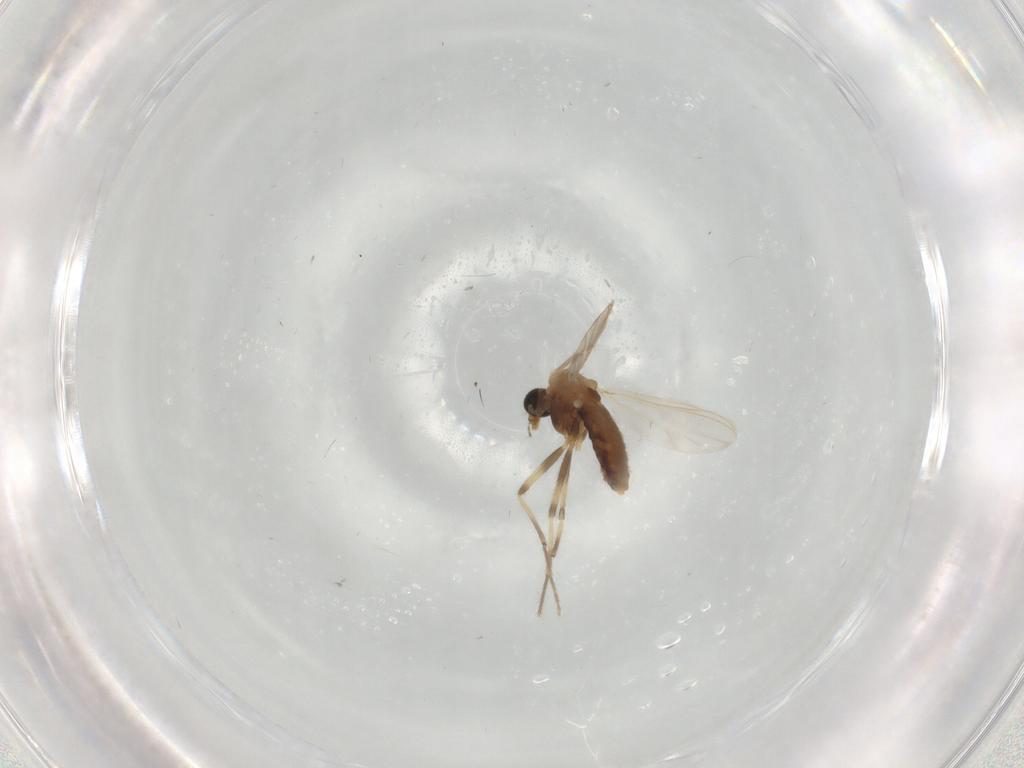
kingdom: Animalia
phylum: Arthropoda
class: Insecta
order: Diptera
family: Chironomidae
